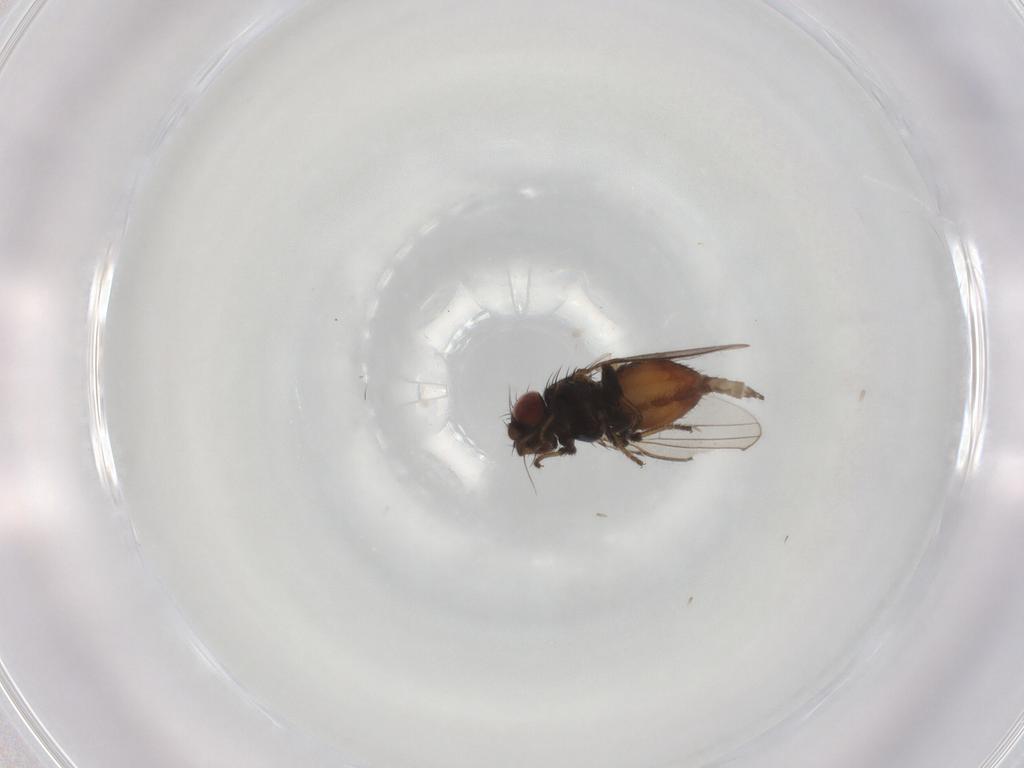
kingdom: Animalia
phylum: Arthropoda
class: Insecta
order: Diptera
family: Milichiidae
